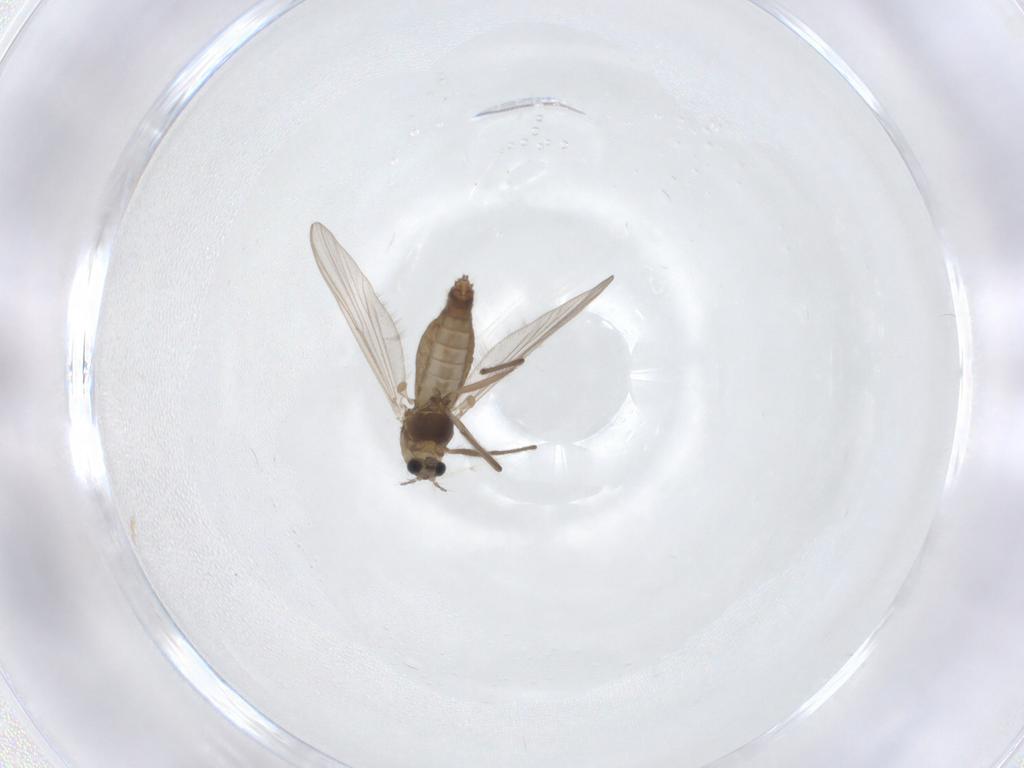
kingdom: Animalia
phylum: Arthropoda
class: Insecta
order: Diptera
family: Chironomidae
